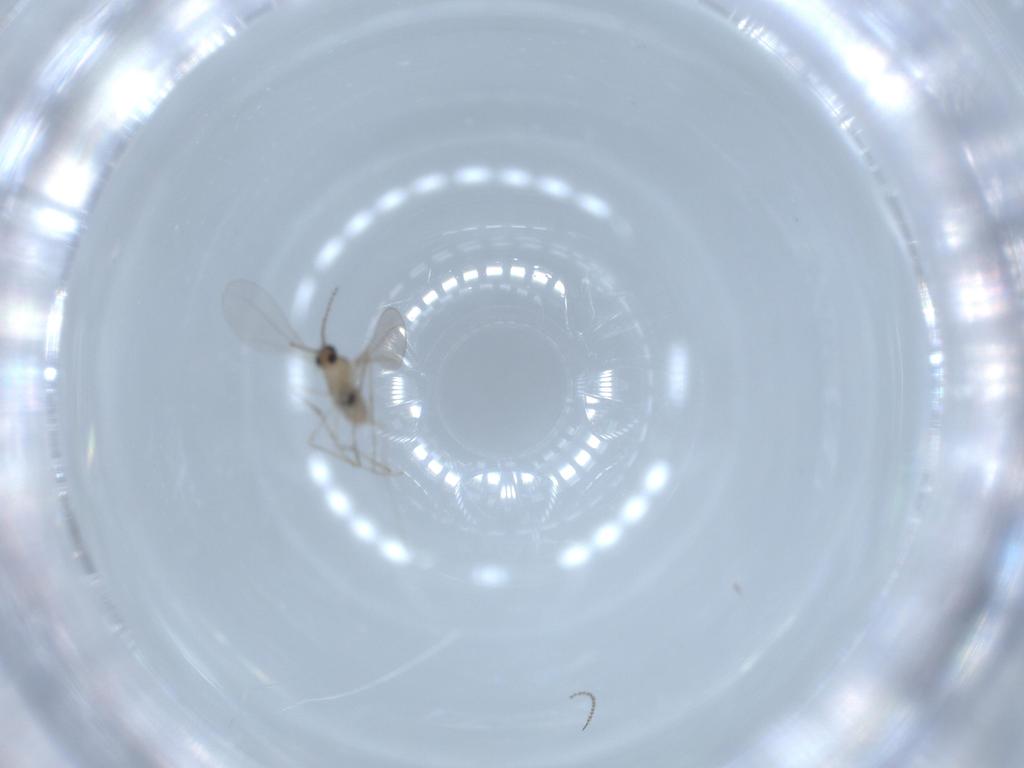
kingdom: Animalia
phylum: Arthropoda
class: Insecta
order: Diptera
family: Cecidomyiidae
